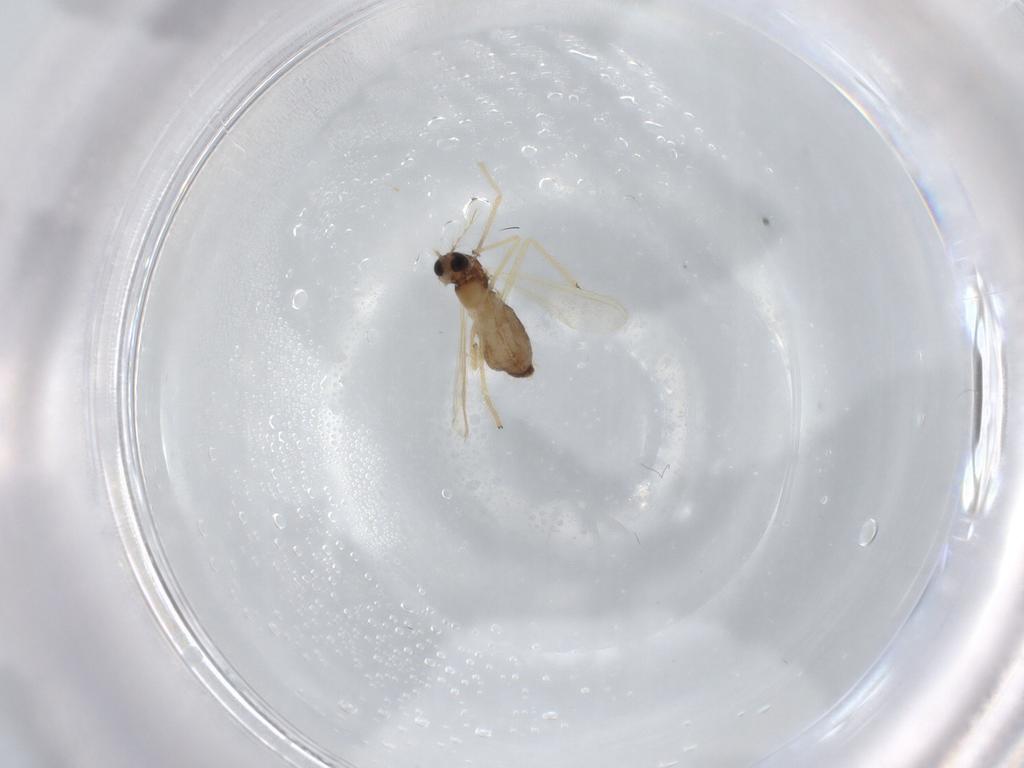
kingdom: Animalia
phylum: Arthropoda
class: Insecta
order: Diptera
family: Chironomidae
